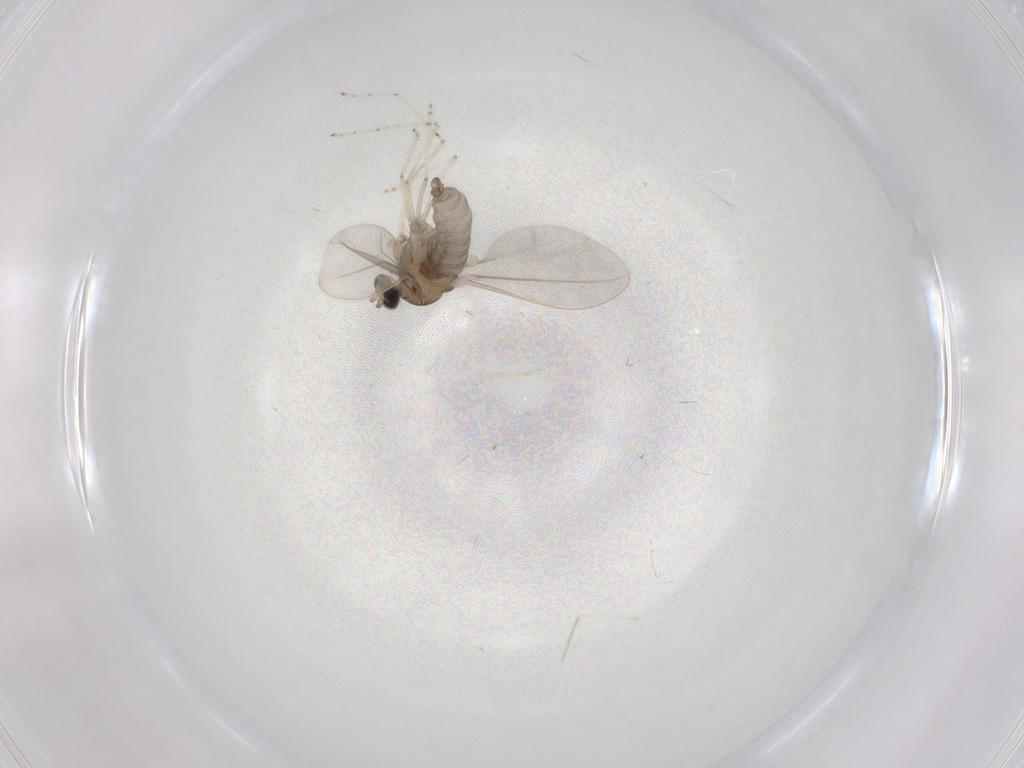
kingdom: Animalia
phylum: Arthropoda
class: Insecta
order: Diptera
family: Cecidomyiidae
